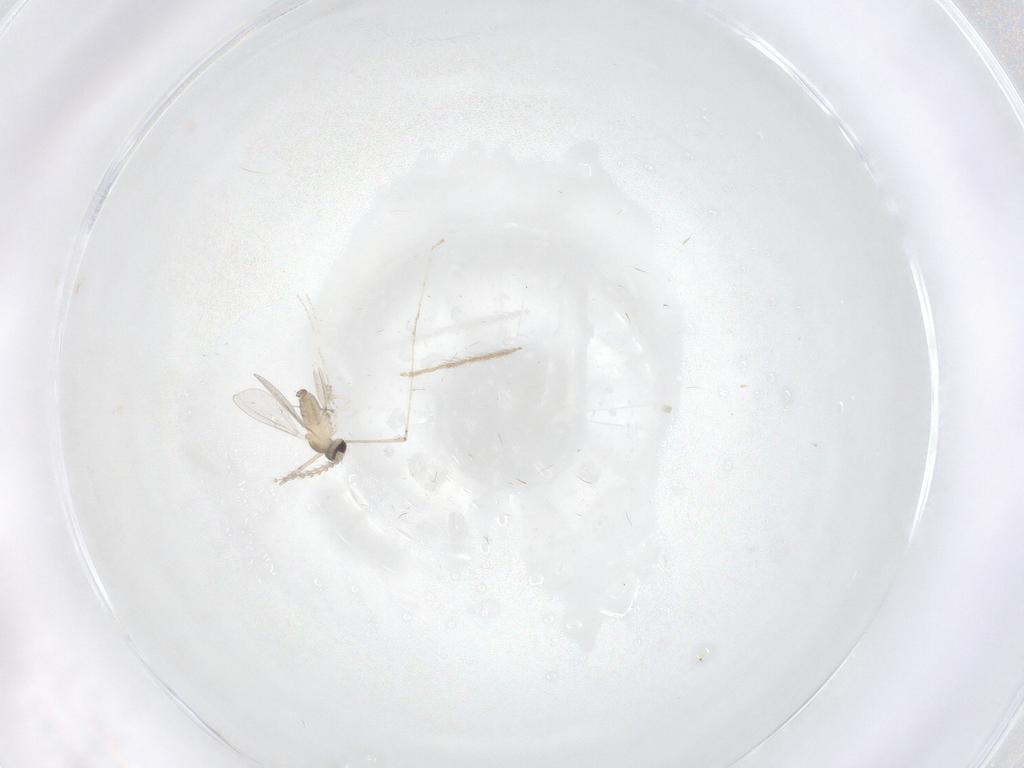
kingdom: Animalia
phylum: Arthropoda
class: Insecta
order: Diptera
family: Cecidomyiidae
